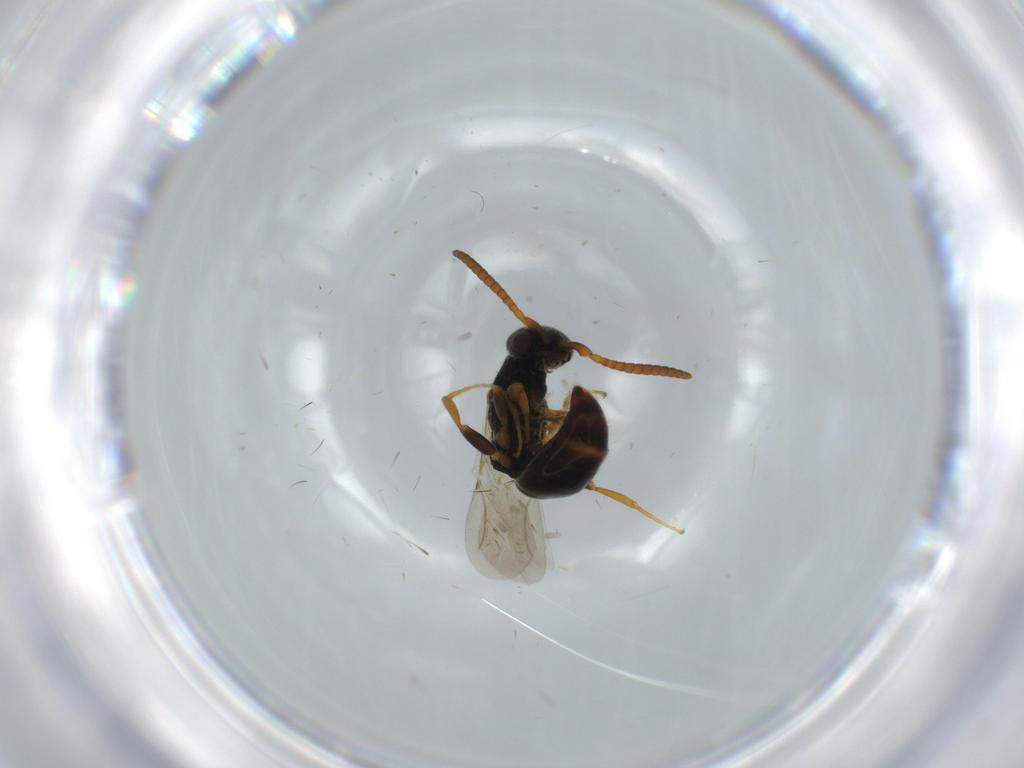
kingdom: Animalia
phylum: Arthropoda
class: Insecta
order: Hymenoptera
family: Bethylidae
